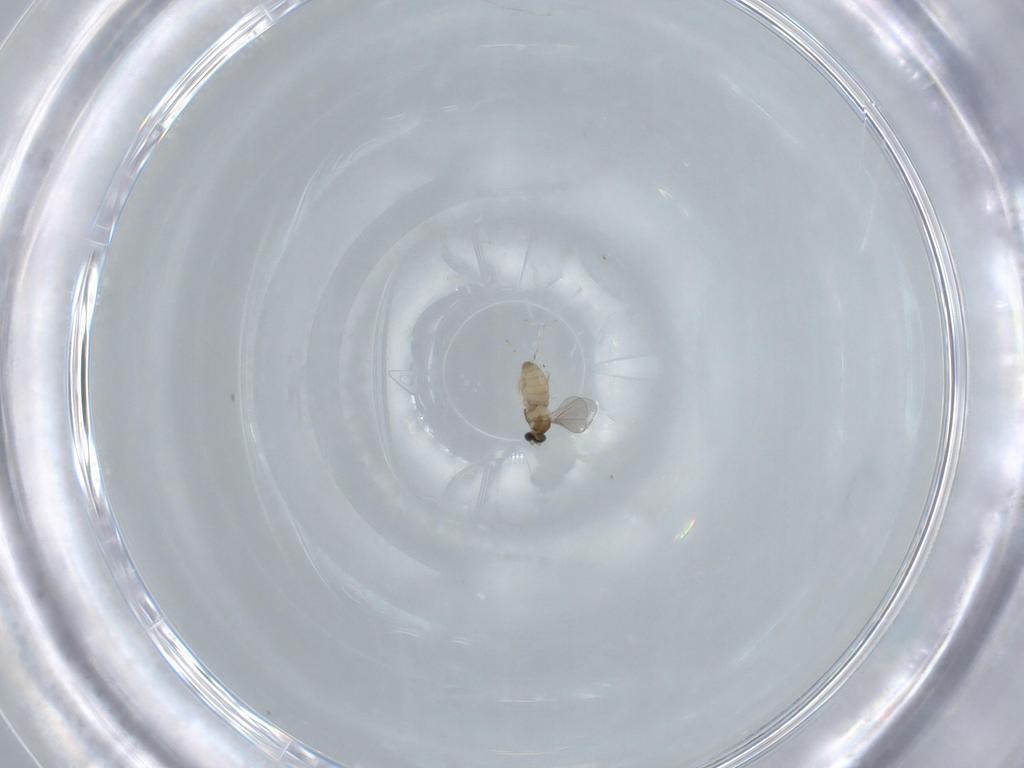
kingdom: Animalia
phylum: Arthropoda
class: Insecta
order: Diptera
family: Sciaridae
